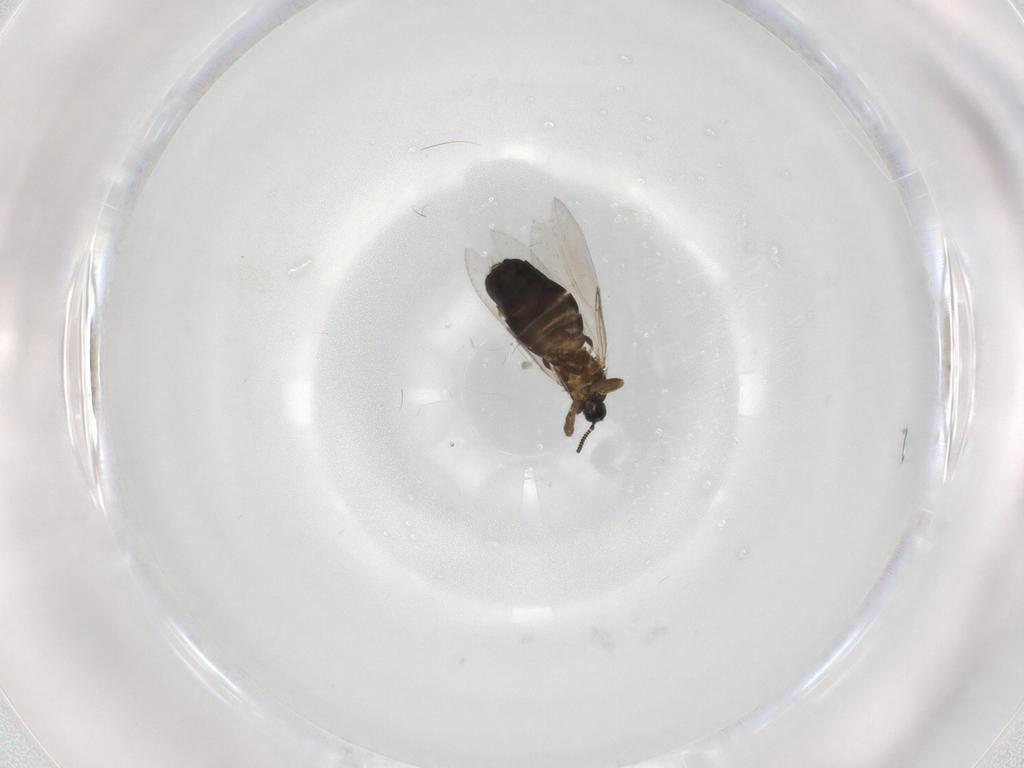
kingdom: Animalia
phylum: Arthropoda
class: Insecta
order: Diptera
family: Scatopsidae
